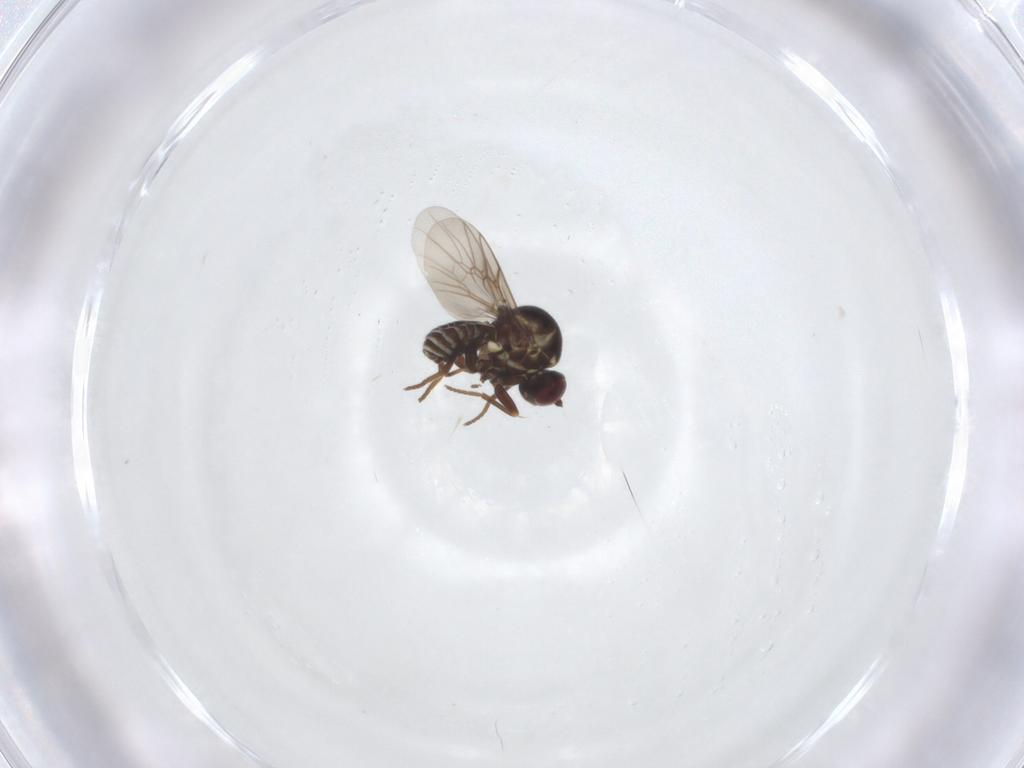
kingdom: Animalia
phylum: Arthropoda
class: Insecta
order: Diptera
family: Mythicomyiidae
